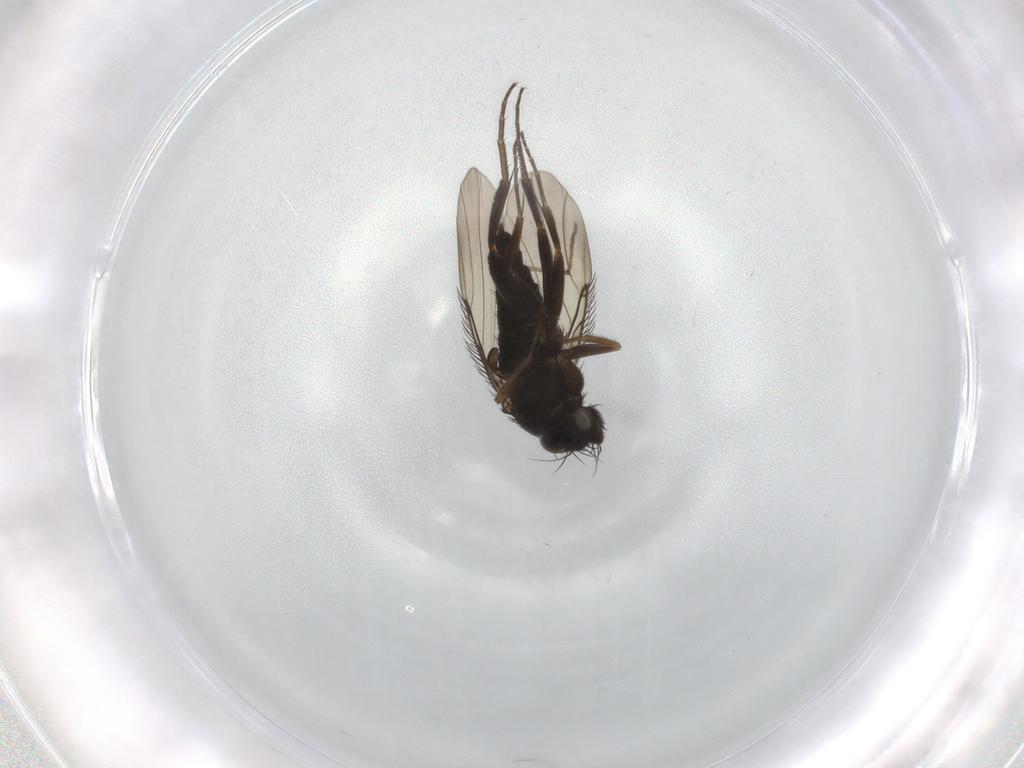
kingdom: Animalia
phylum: Arthropoda
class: Insecta
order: Diptera
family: Phoridae
